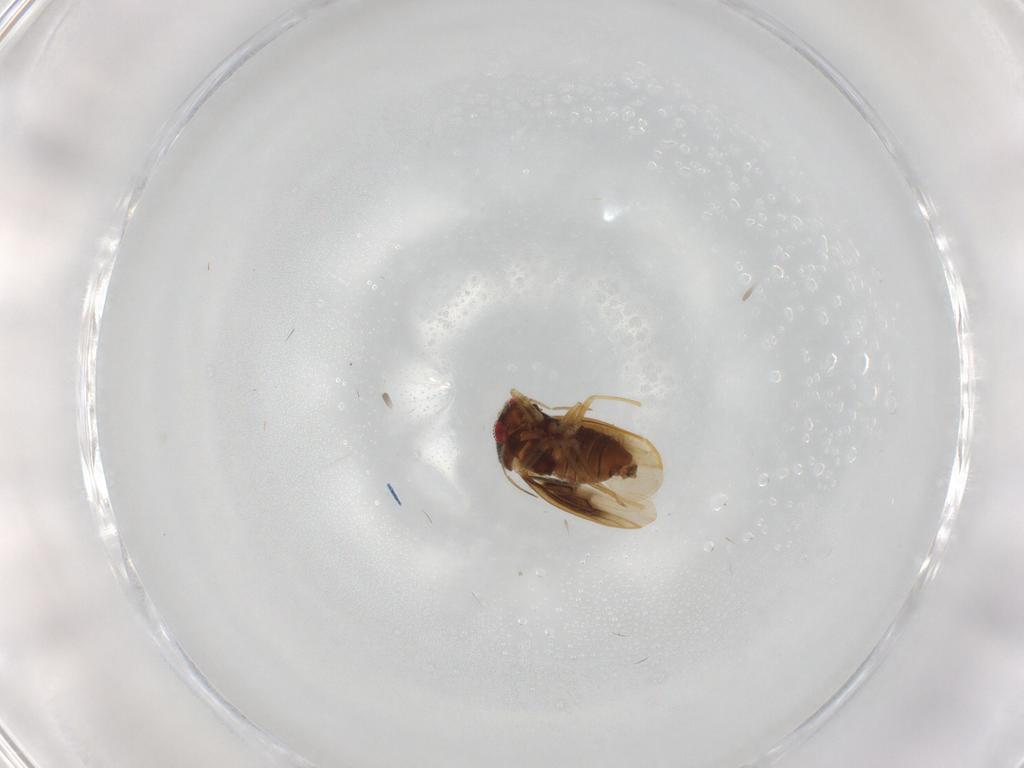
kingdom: Animalia
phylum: Arthropoda
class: Insecta
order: Hemiptera
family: Schizopteridae
